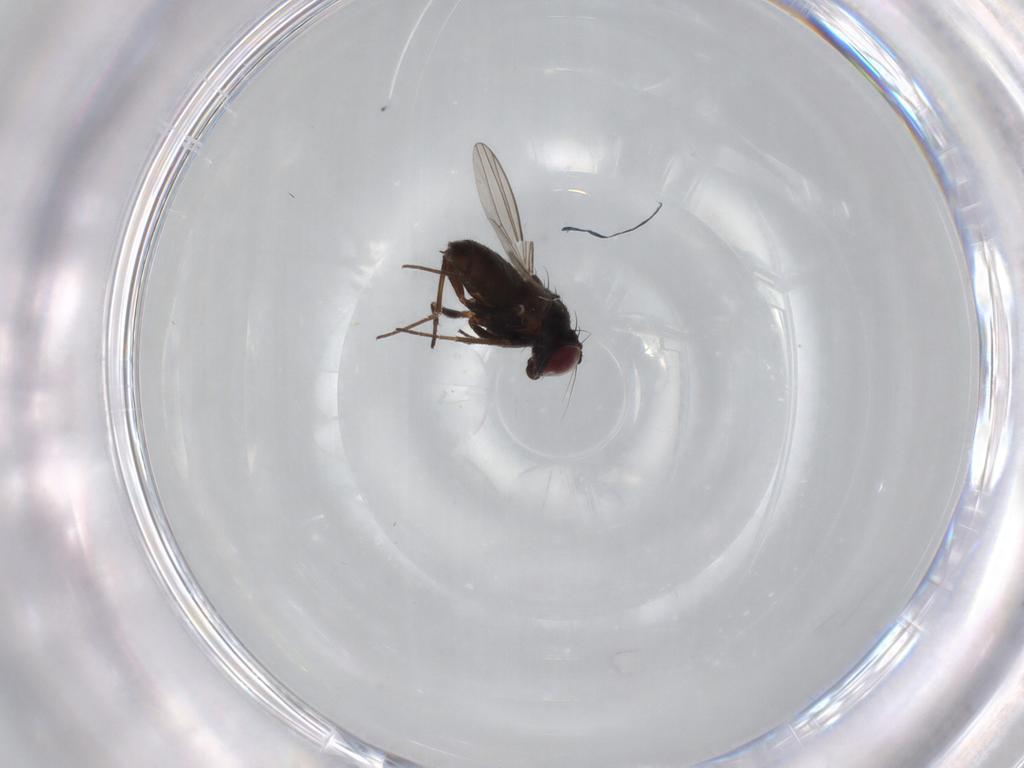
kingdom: Animalia
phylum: Arthropoda
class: Insecta
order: Diptera
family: Dolichopodidae
